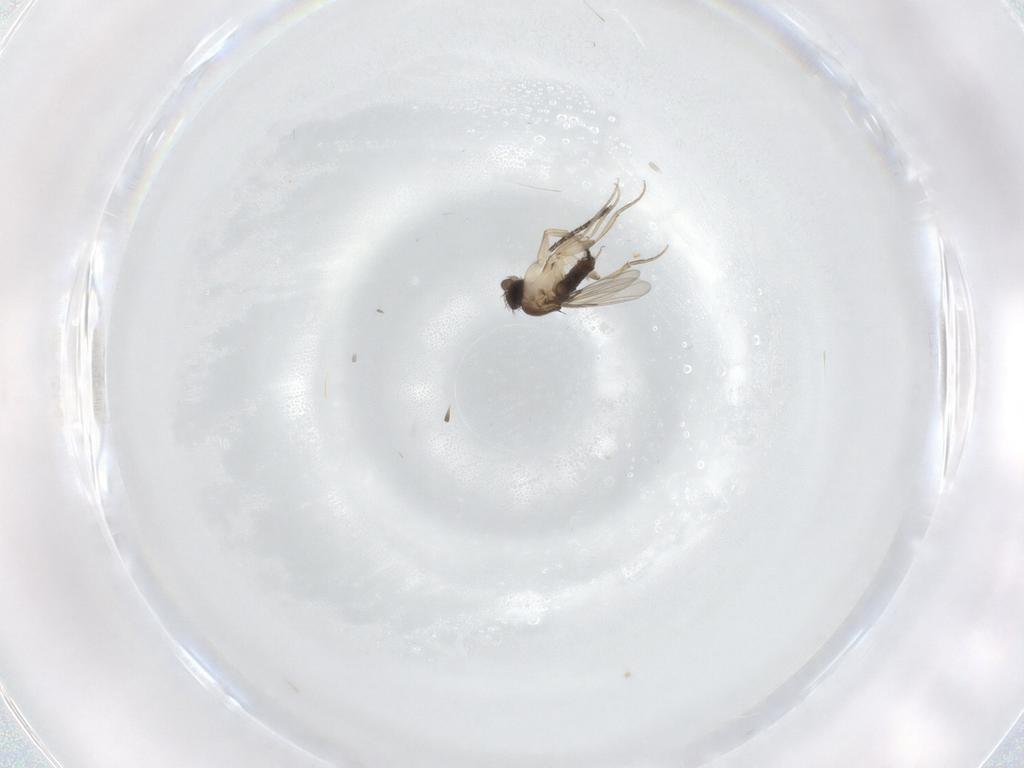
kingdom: Animalia
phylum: Arthropoda
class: Insecta
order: Diptera
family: Phoridae
